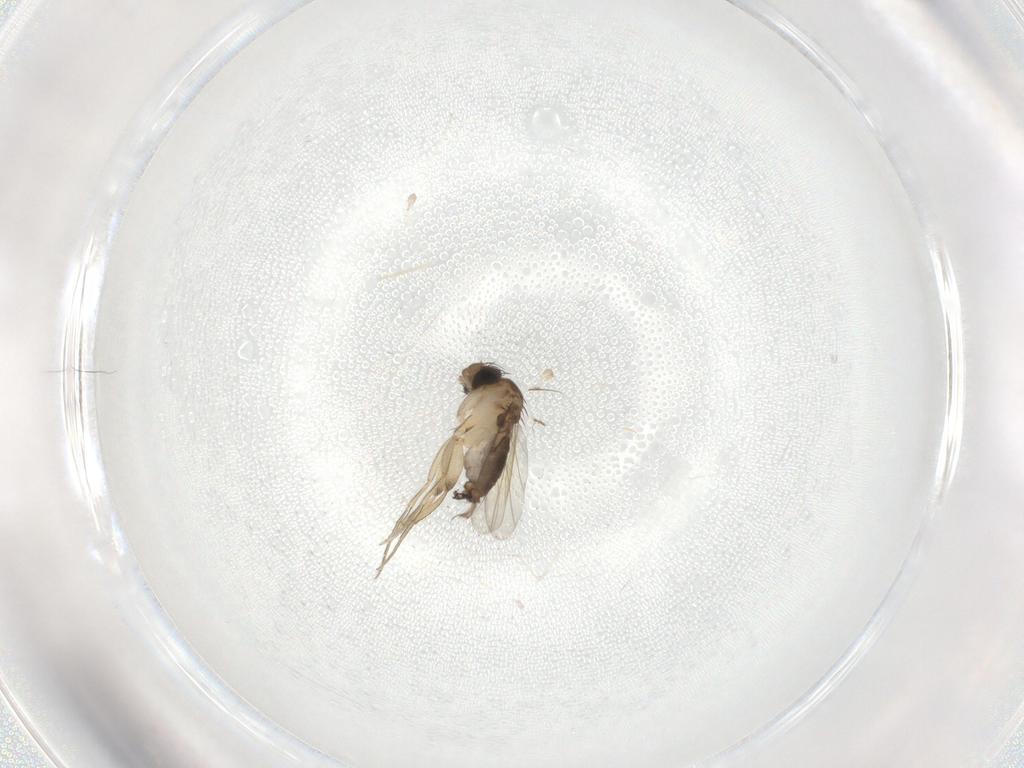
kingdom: Animalia
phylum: Arthropoda
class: Insecta
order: Diptera
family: Cecidomyiidae
